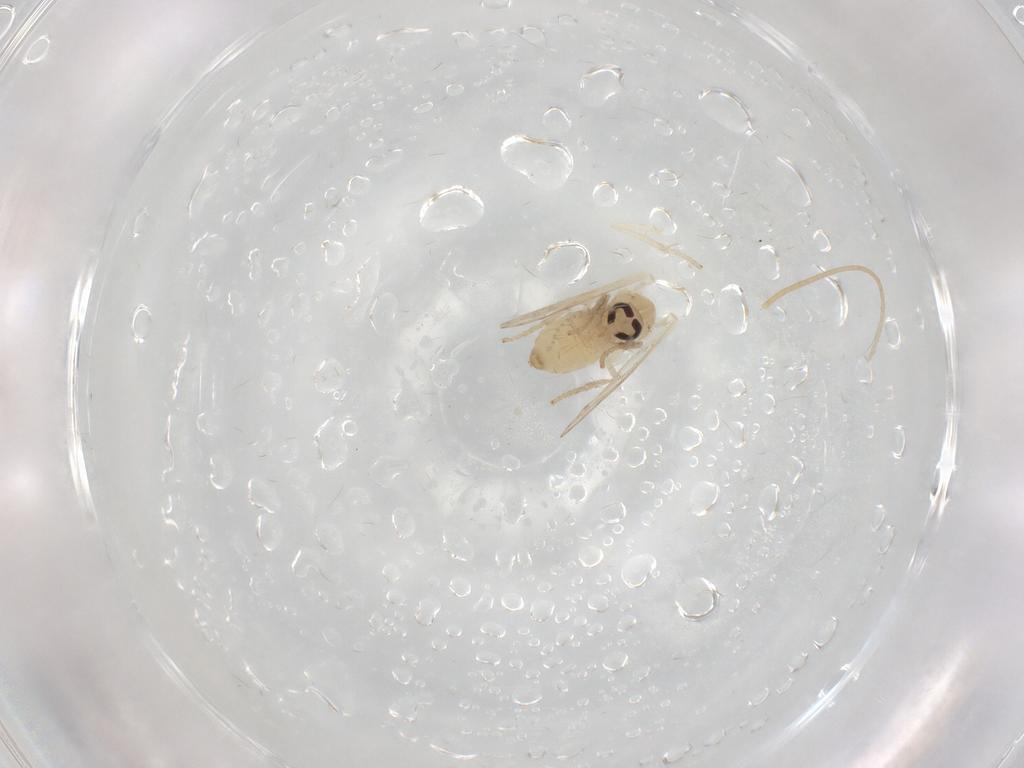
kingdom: Animalia
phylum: Arthropoda
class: Insecta
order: Diptera
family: Psychodidae
